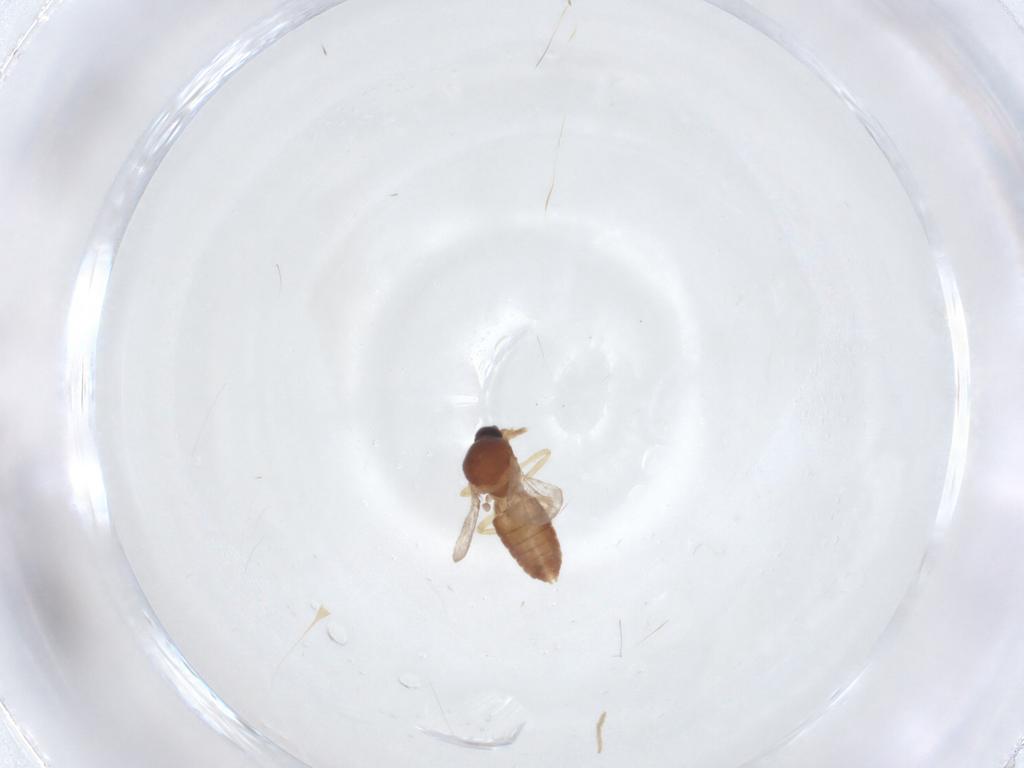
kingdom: Animalia
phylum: Arthropoda
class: Insecta
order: Diptera
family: Ceratopogonidae
